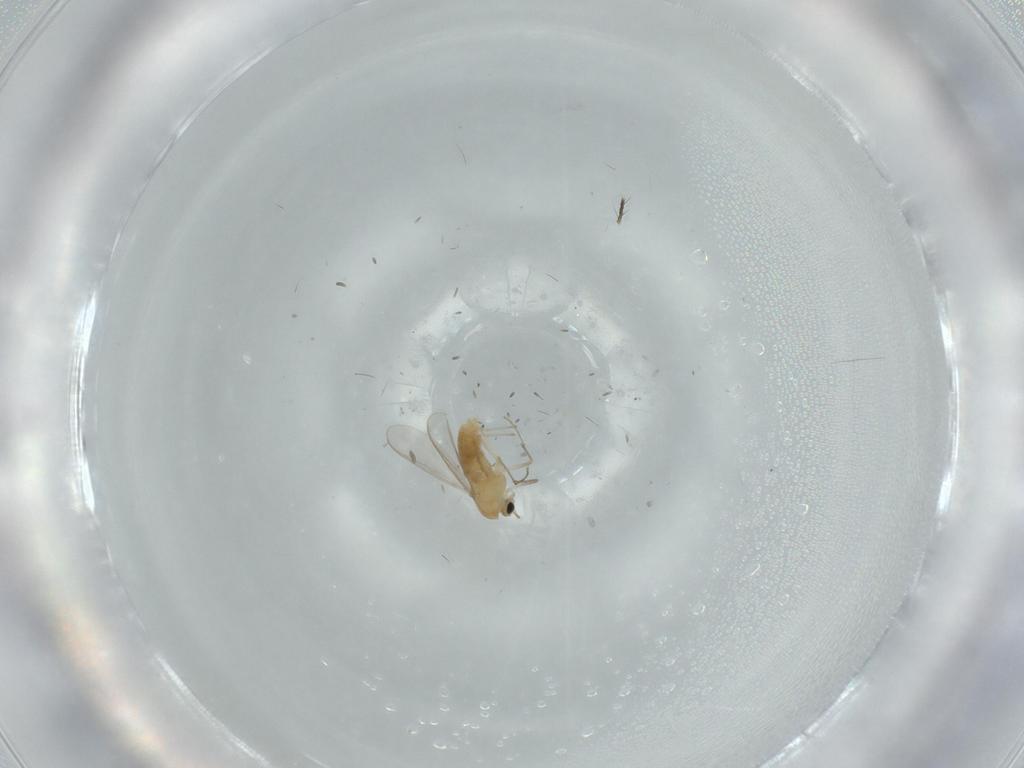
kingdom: Animalia
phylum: Arthropoda
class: Insecta
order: Diptera
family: Chironomidae
